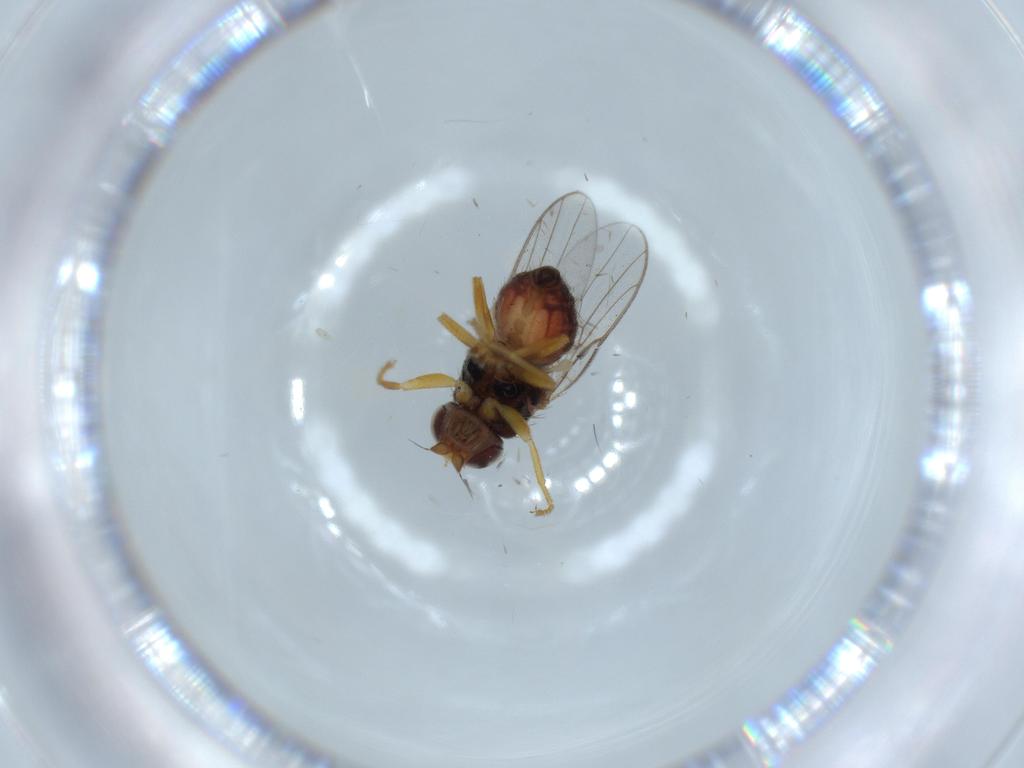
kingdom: Animalia
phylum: Arthropoda
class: Insecta
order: Diptera
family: Chloropidae
